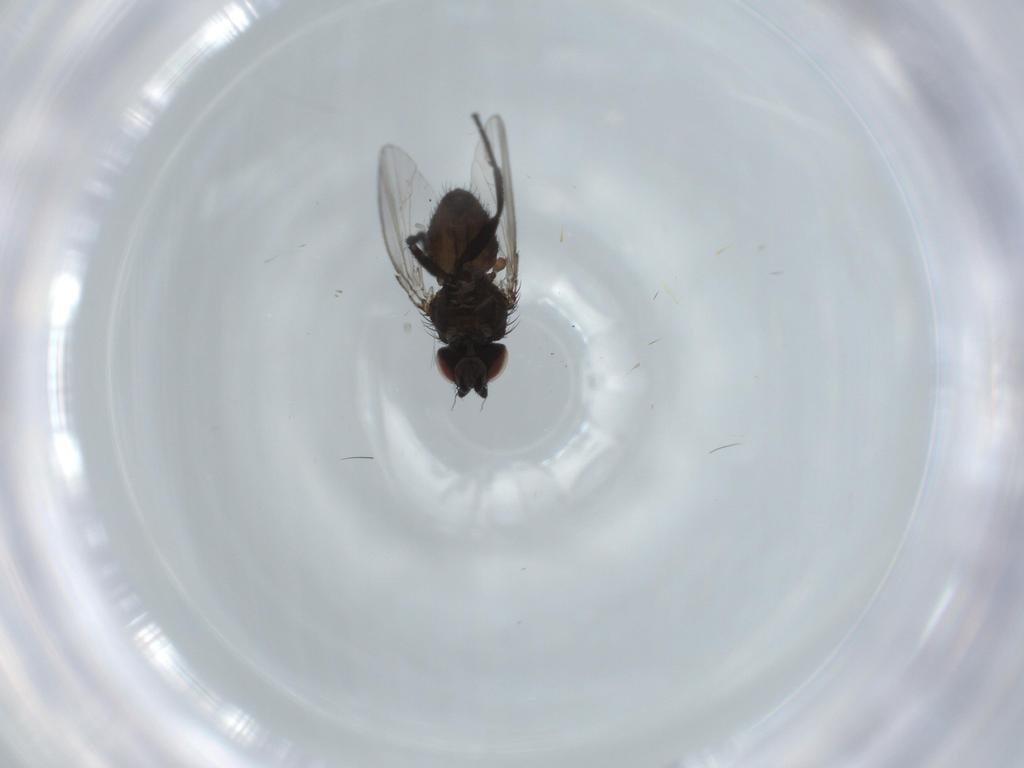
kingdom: Animalia
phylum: Arthropoda
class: Insecta
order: Diptera
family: Milichiidae
